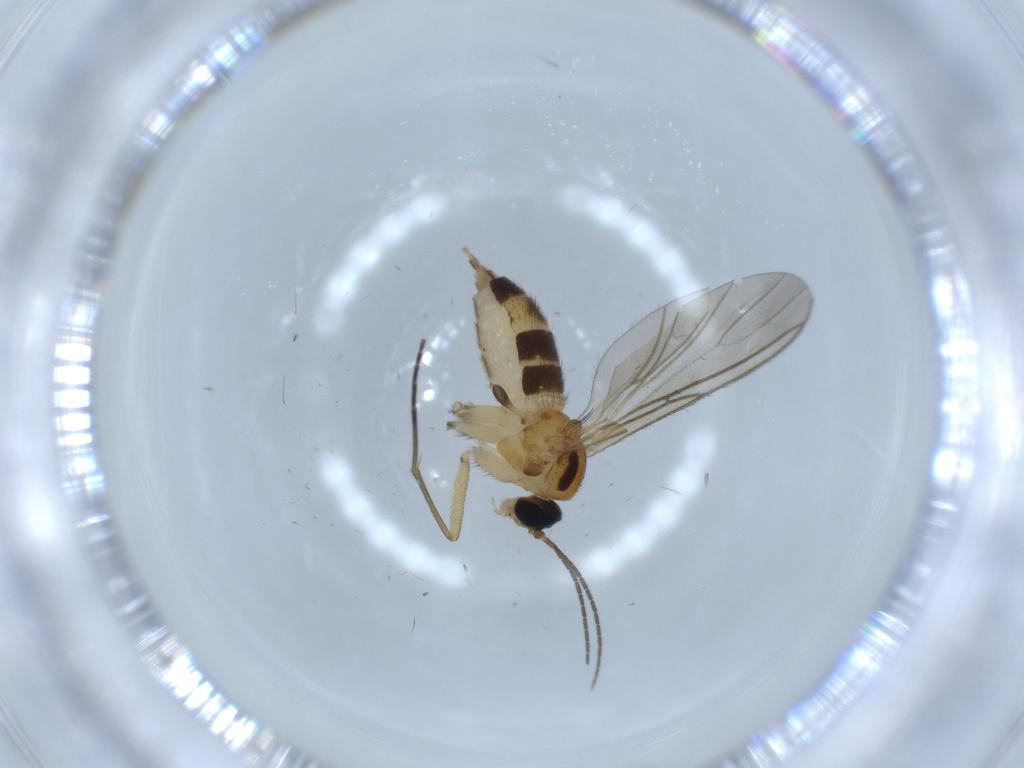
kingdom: Animalia
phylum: Arthropoda
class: Insecta
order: Diptera
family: Sciaridae
